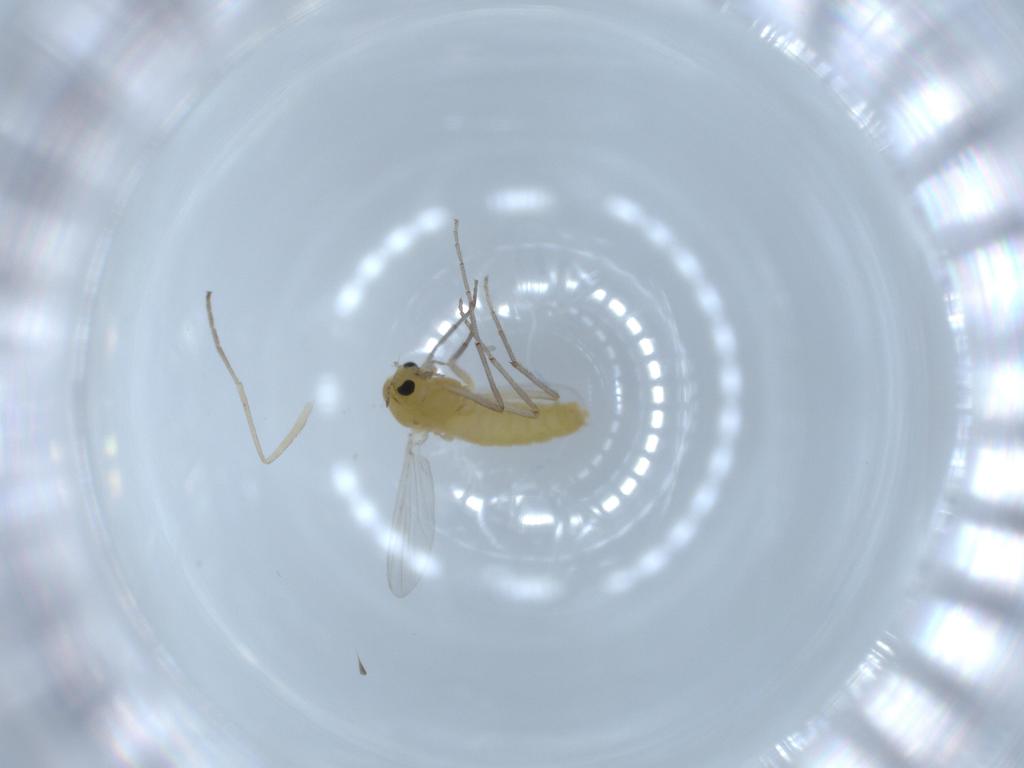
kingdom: Animalia
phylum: Arthropoda
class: Insecta
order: Diptera
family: Chironomidae
